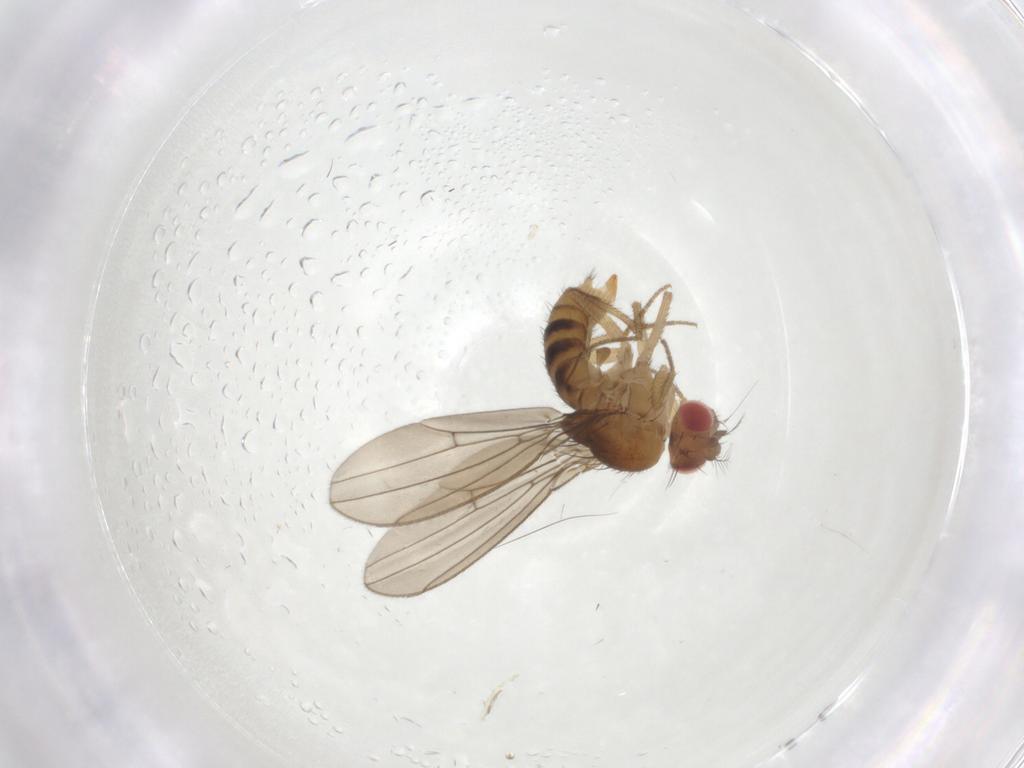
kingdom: Animalia
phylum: Arthropoda
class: Insecta
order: Diptera
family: Drosophilidae
